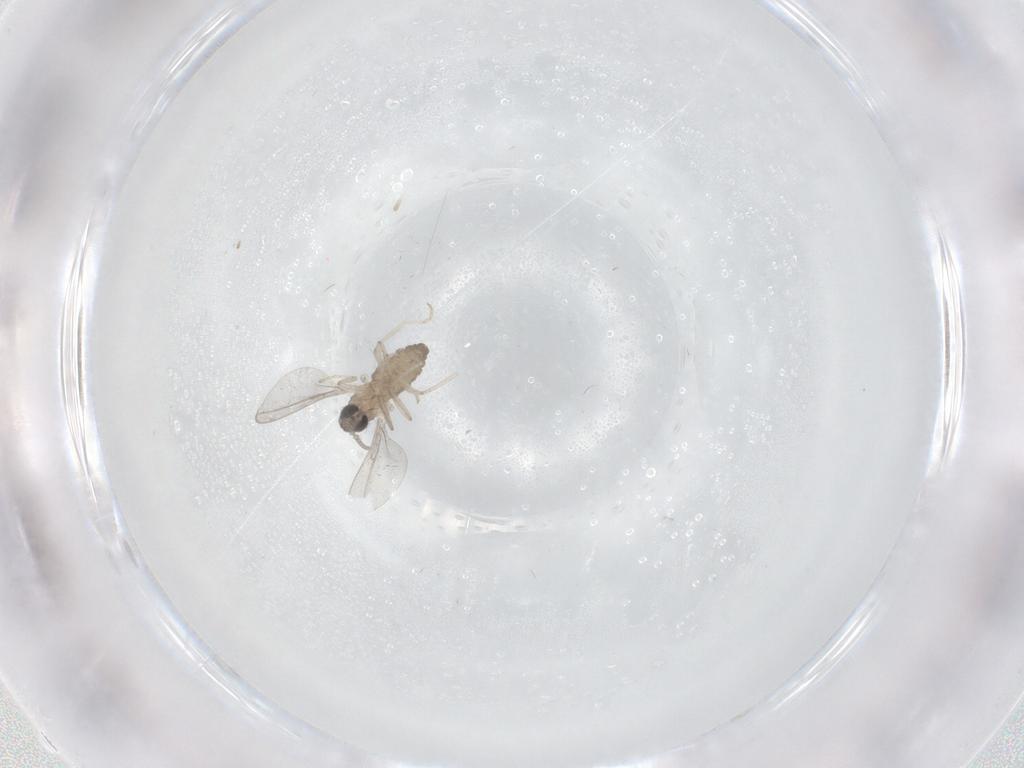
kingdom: Animalia
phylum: Arthropoda
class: Insecta
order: Diptera
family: Cecidomyiidae
